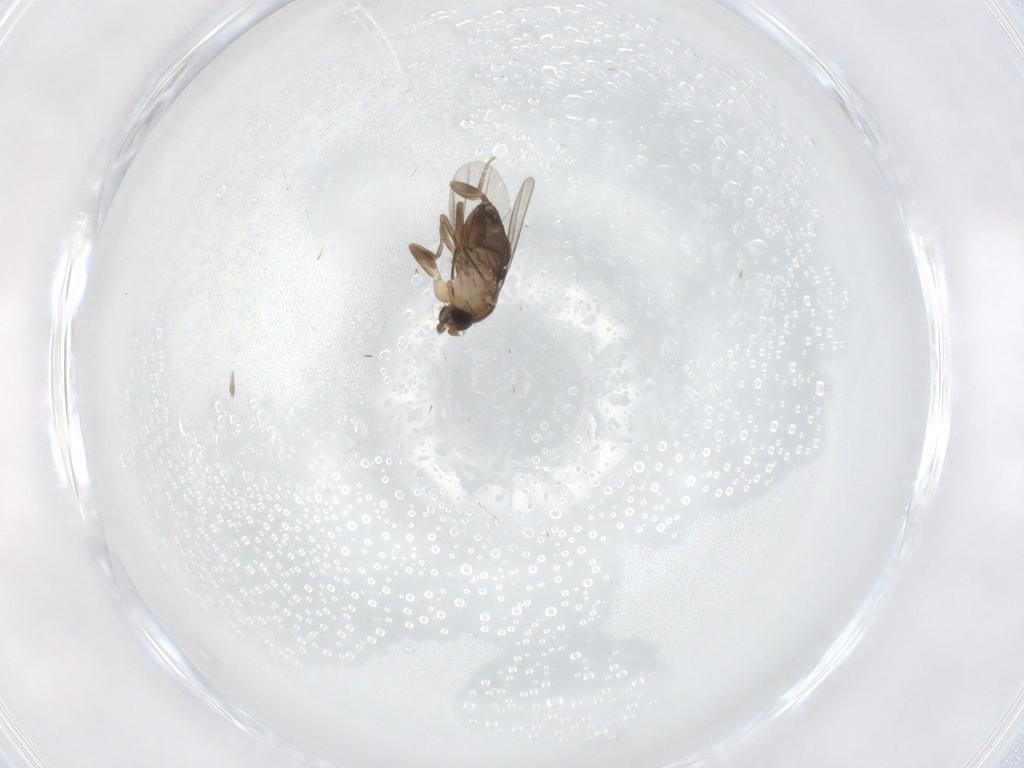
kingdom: Animalia
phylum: Arthropoda
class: Insecta
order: Diptera
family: Phoridae
